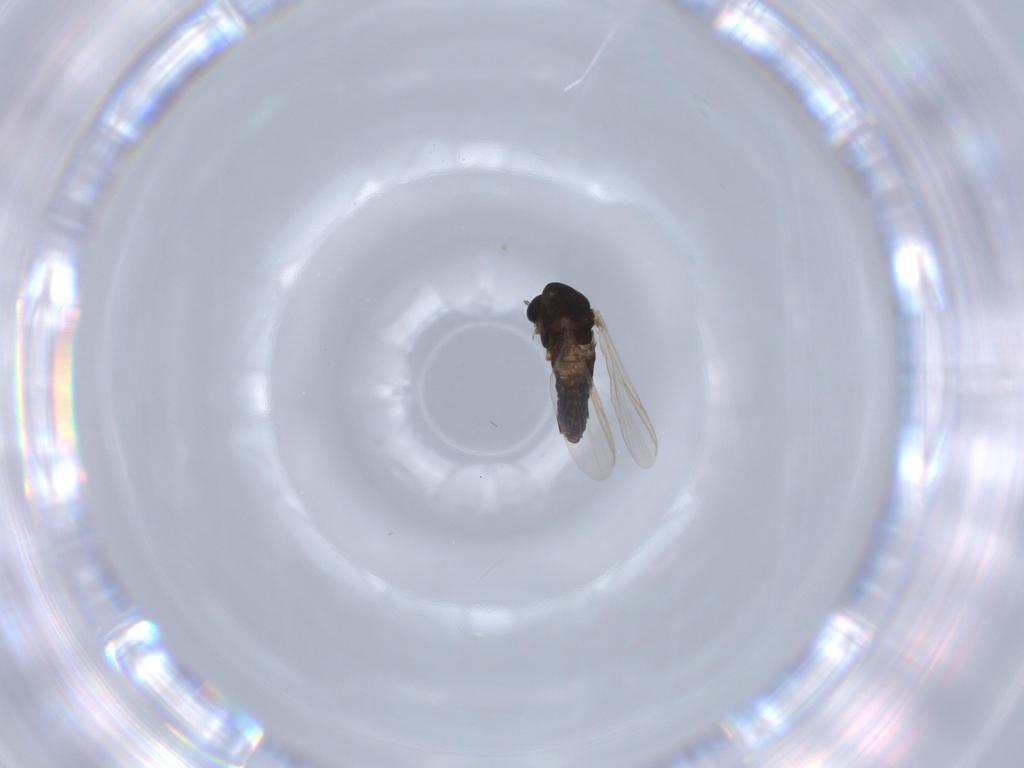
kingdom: Animalia
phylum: Arthropoda
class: Insecta
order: Diptera
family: Chironomidae
